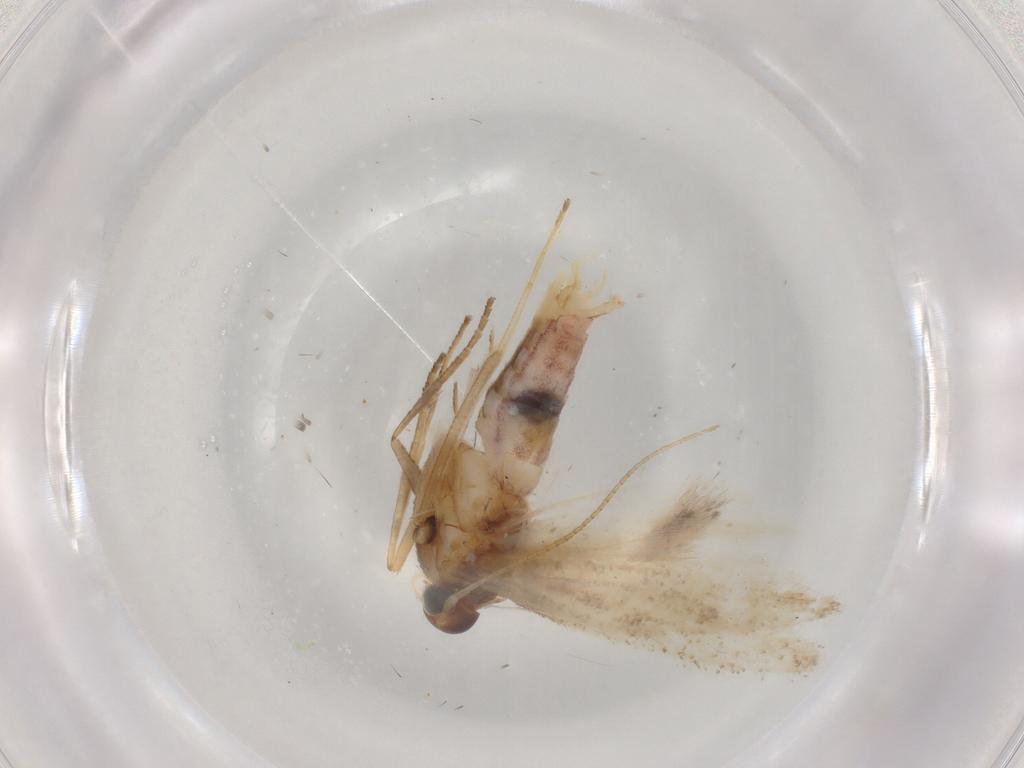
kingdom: Animalia
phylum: Arthropoda
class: Insecta
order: Lepidoptera
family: Gelechiidae
